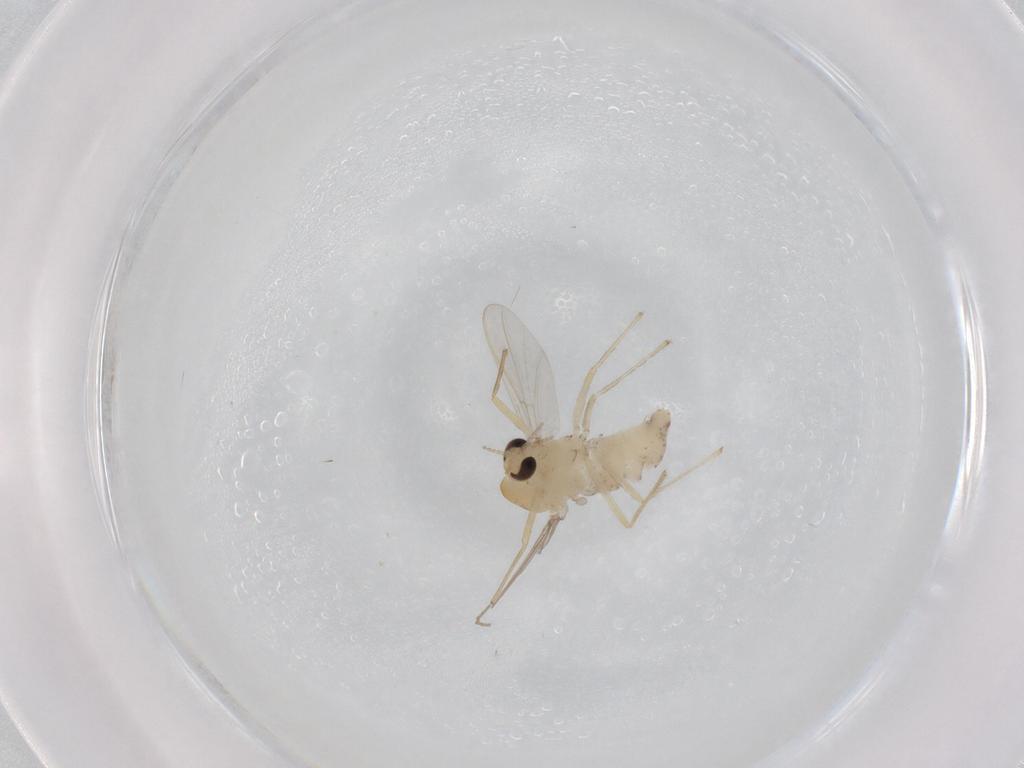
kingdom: Animalia
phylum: Arthropoda
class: Insecta
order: Diptera
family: Chironomidae
